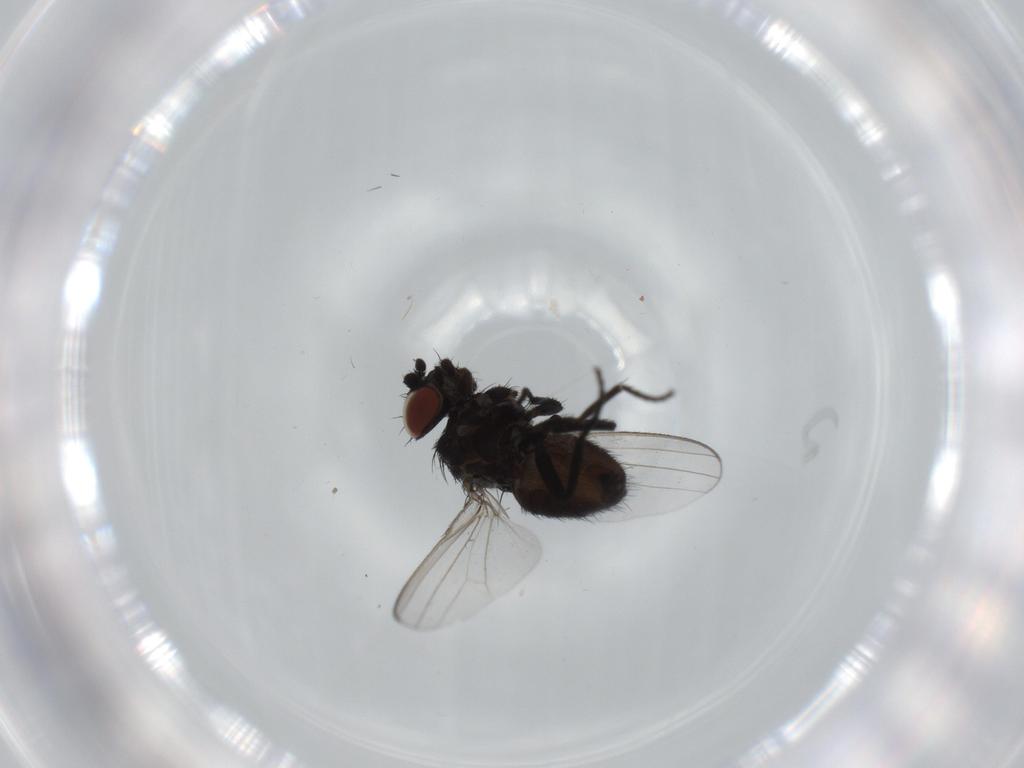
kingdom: Animalia
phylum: Arthropoda
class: Insecta
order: Diptera
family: Milichiidae
